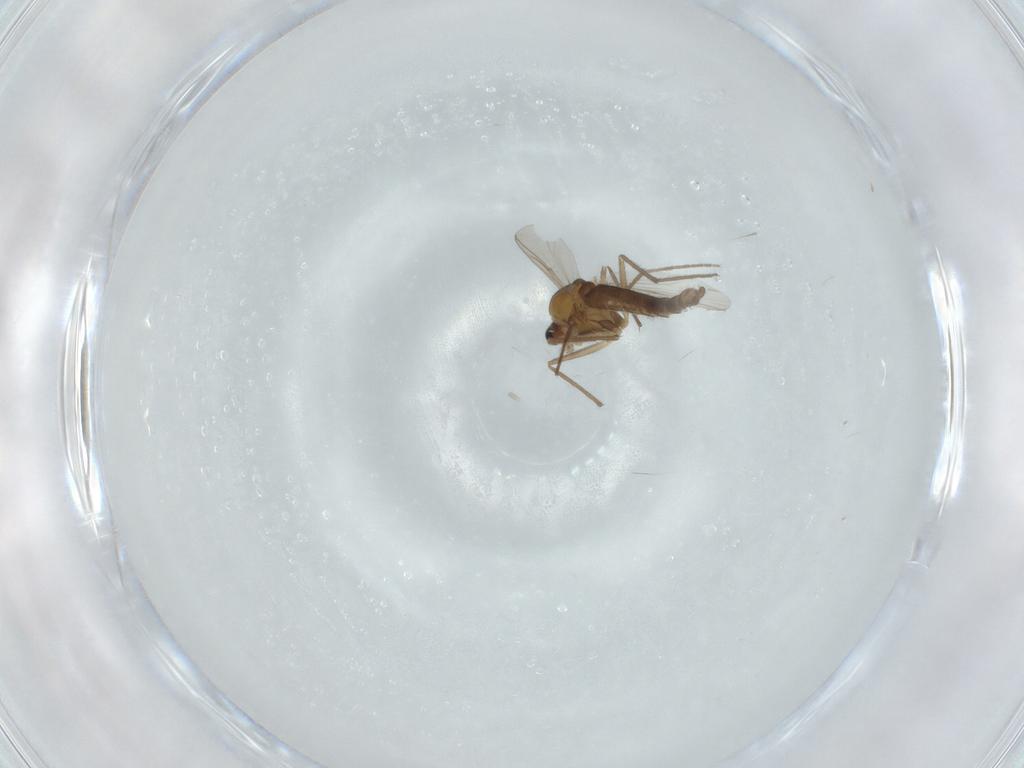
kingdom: Animalia
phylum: Arthropoda
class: Insecta
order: Diptera
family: Chironomidae
